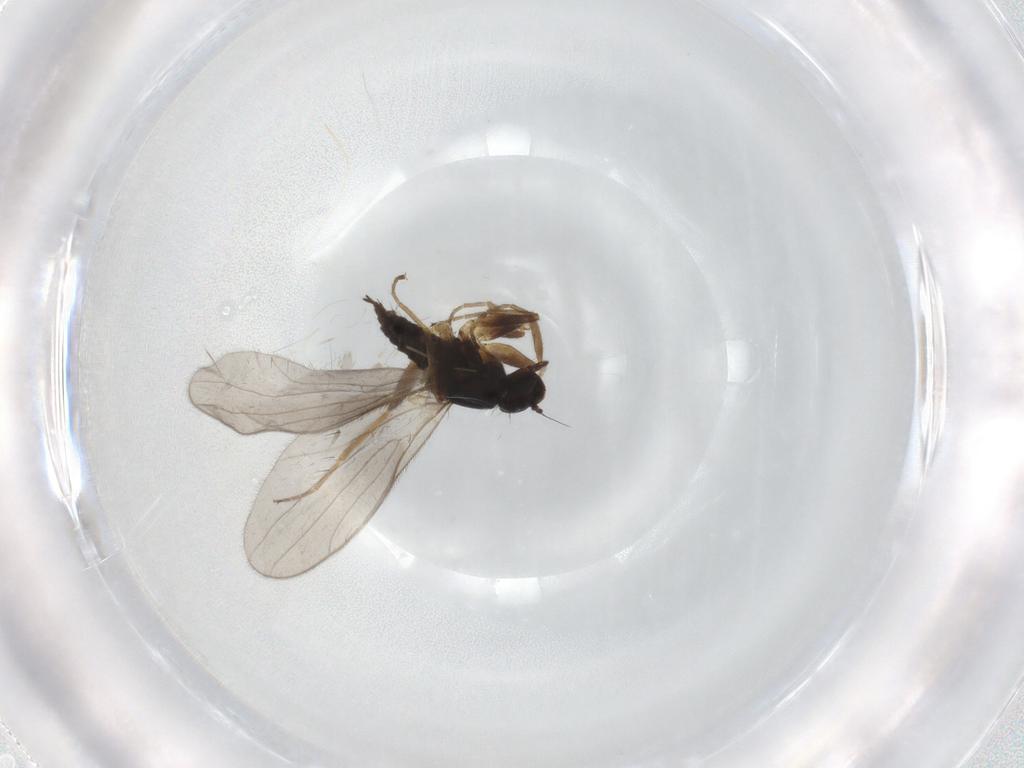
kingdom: Animalia
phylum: Arthropoda
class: Insecta
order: Diptera
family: Hybotidae
